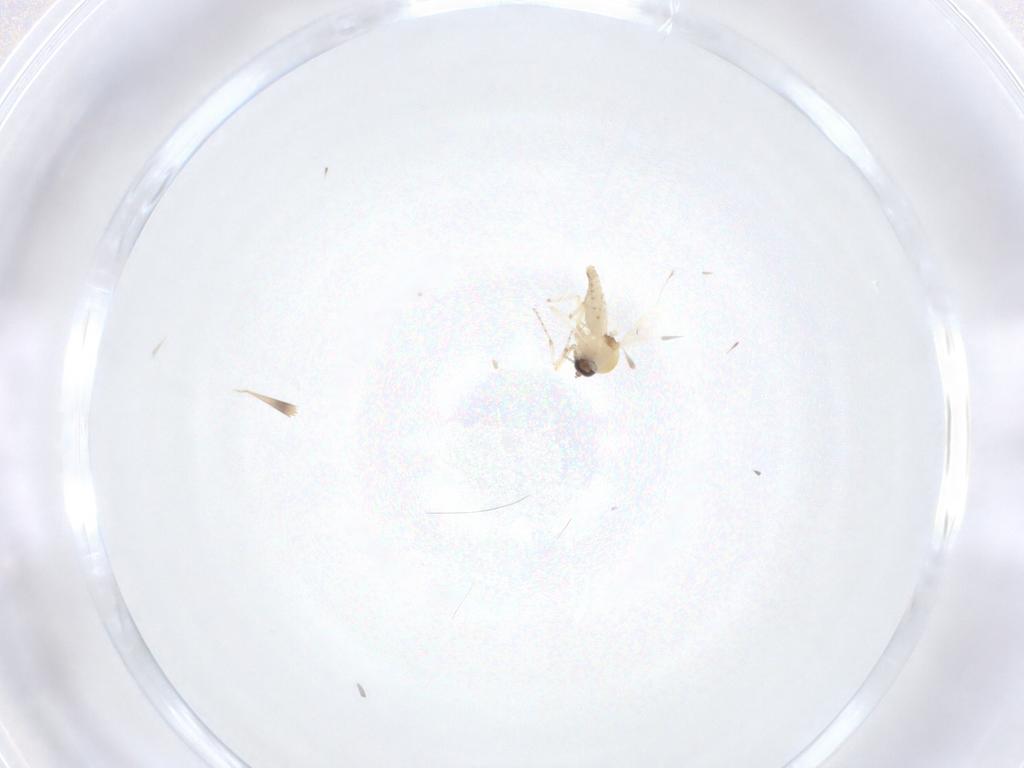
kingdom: Animalia
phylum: Arthropoda
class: Insecta
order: Diptera
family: Ceratopogonidae
